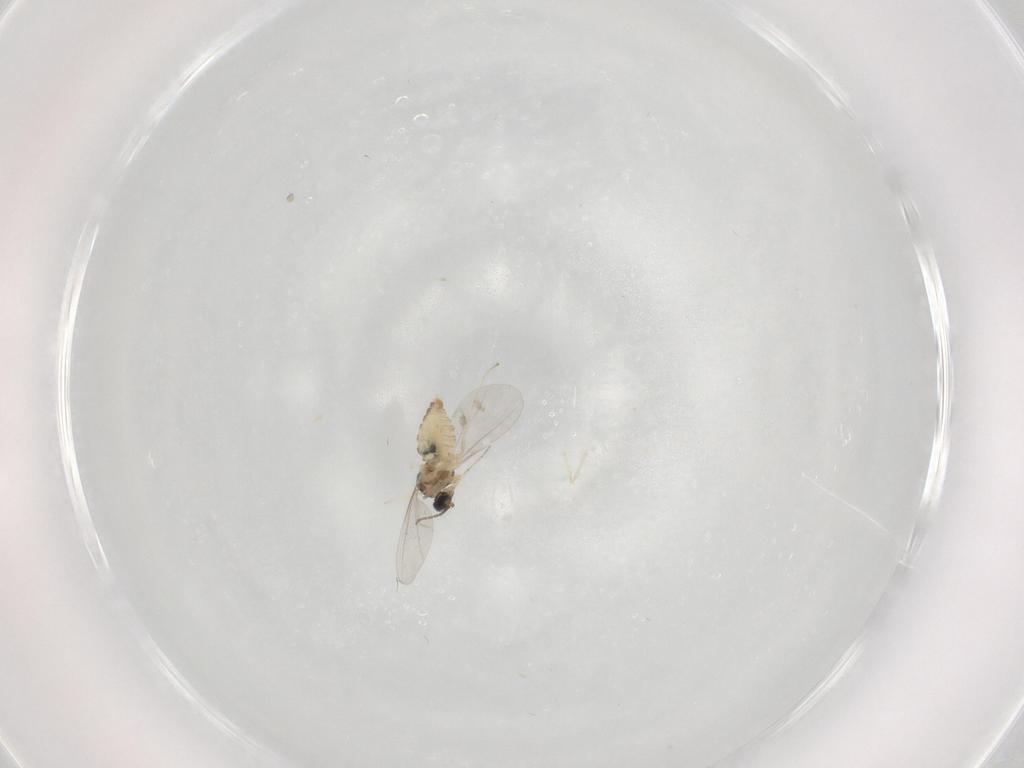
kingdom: Animalia
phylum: Arthropoda
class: Insecta
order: Diptera
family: Cecidomyiidae
